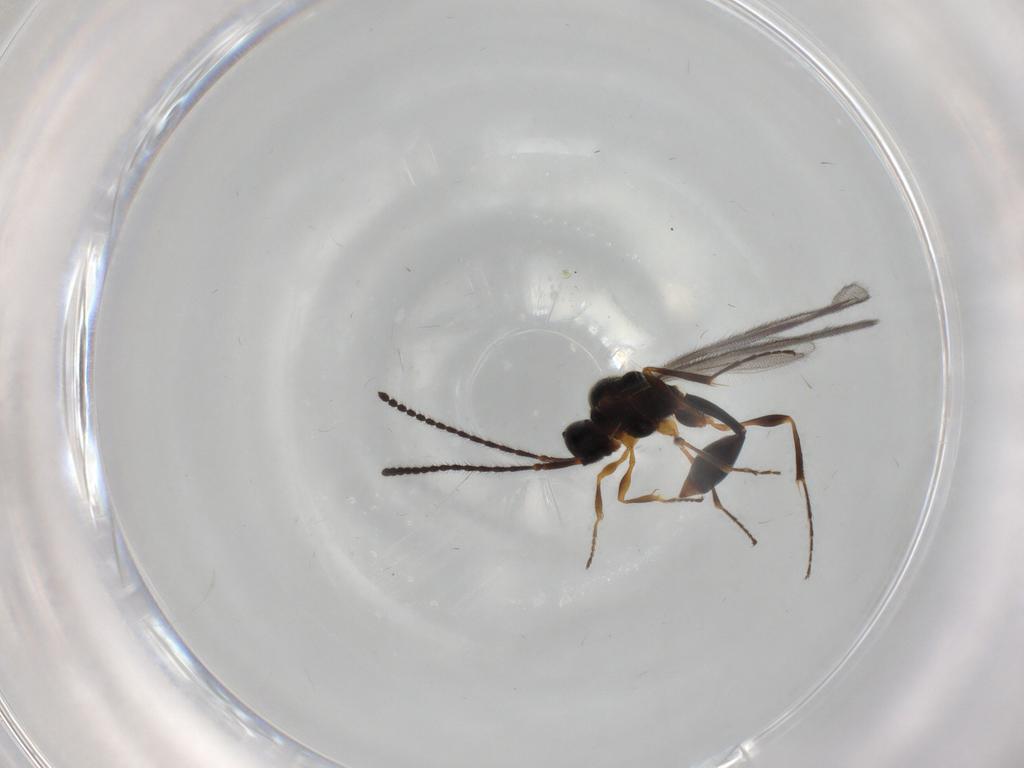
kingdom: Animalia
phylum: Arthropoda
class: Insecta
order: Hymenoptera
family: Diapriidae
